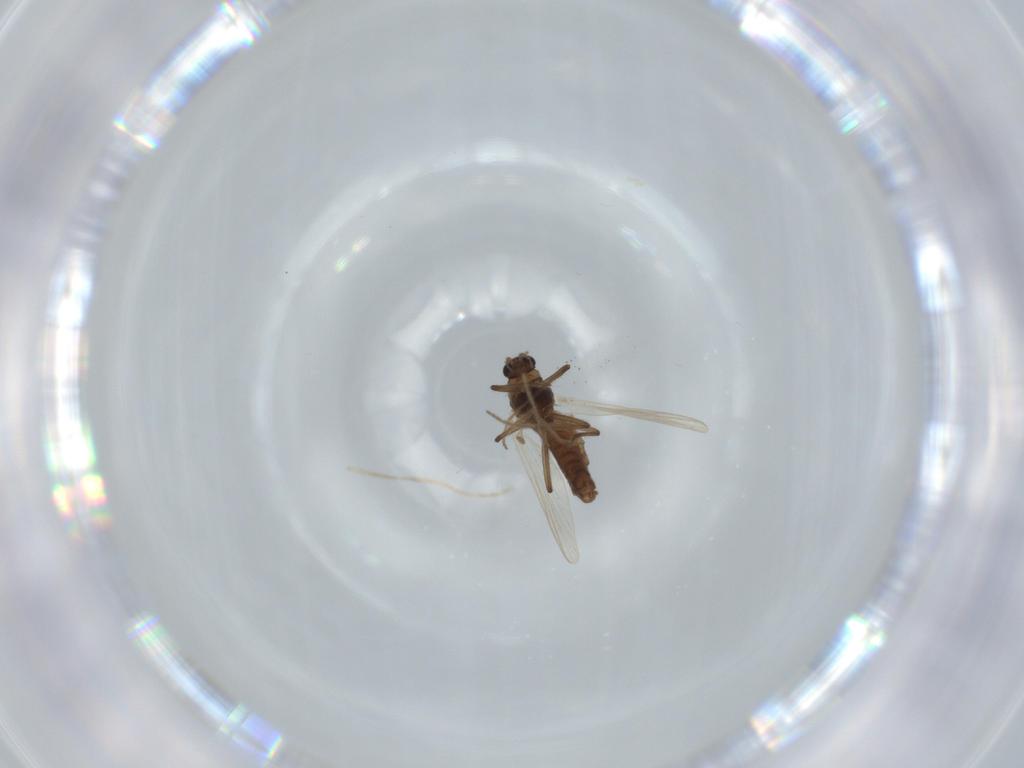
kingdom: Animalia
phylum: Arthropoda
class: Insecta
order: Diptera
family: Chironomidae
